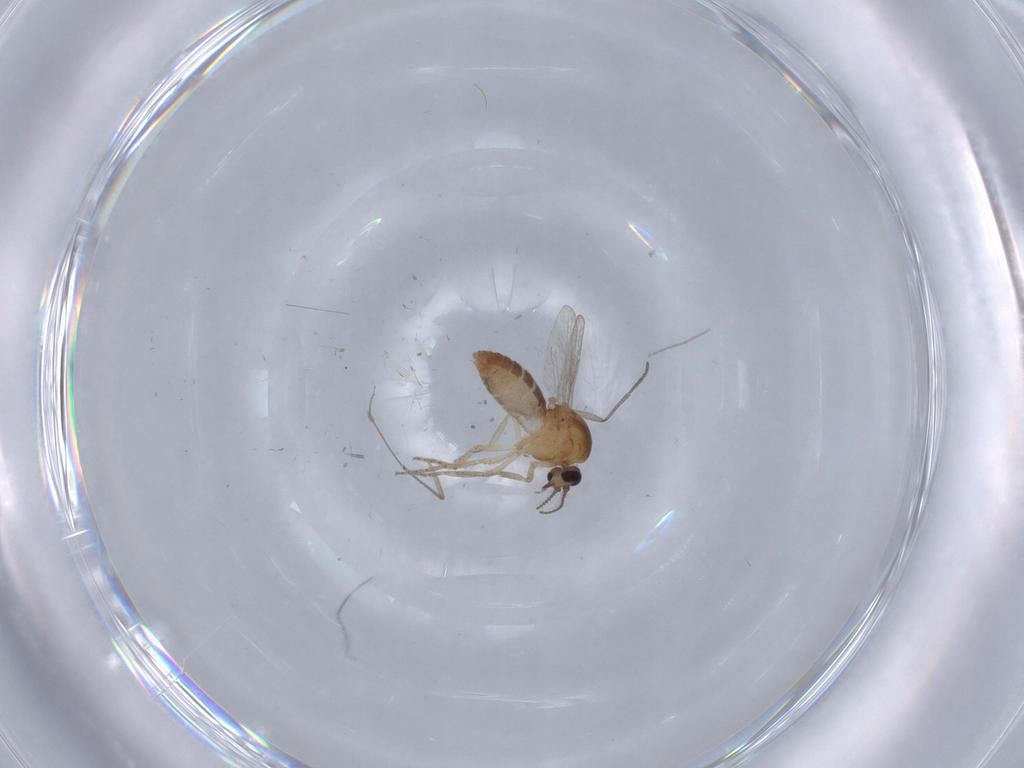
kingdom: Animalia
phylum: Arthropoda
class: Insecta
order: Diptera
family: Ceratopogonidae
